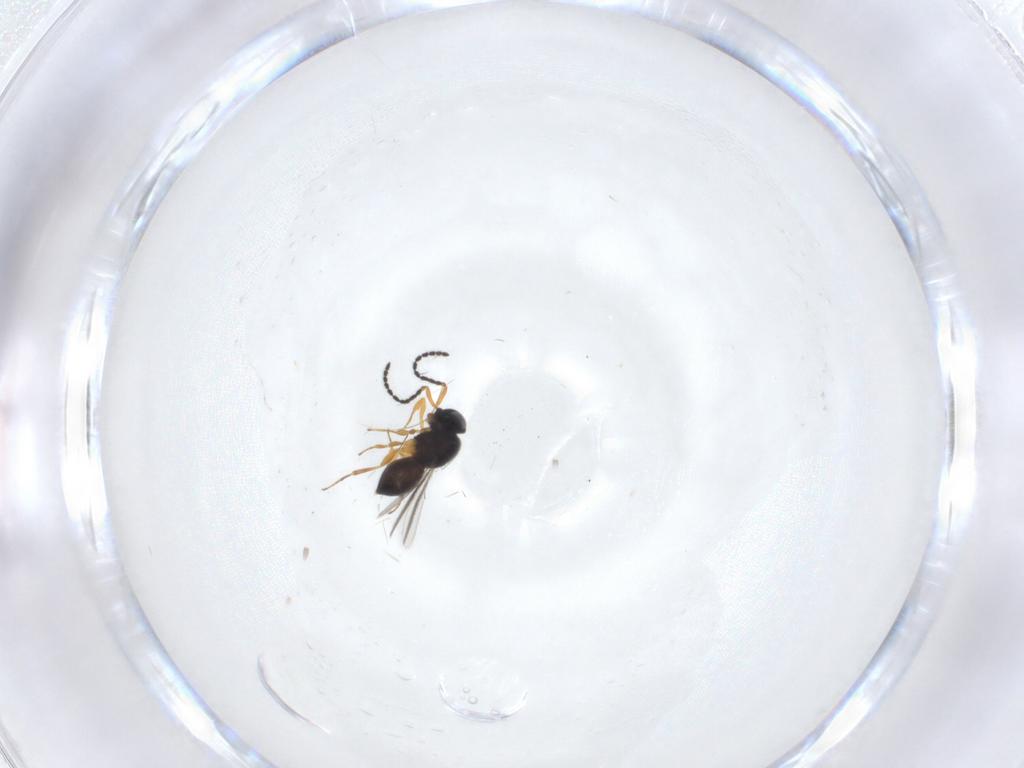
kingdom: Animalia
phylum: Arthropoda
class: Insecta
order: Hymenoptera
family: Scelionidae
